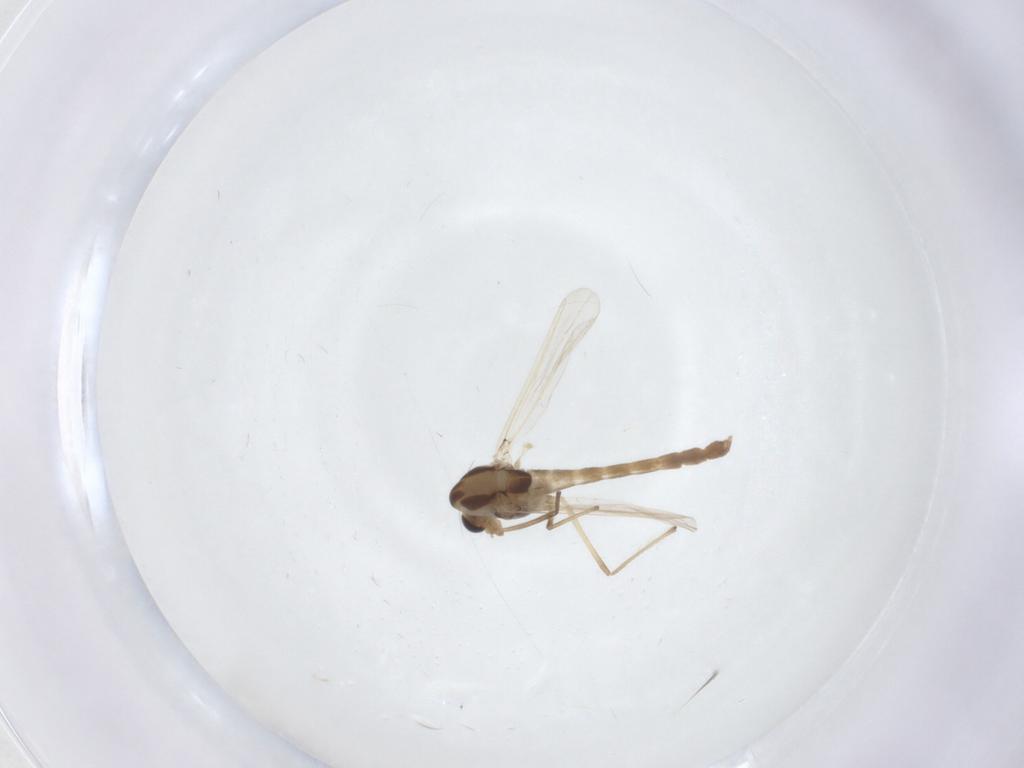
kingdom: Animalia
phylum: Arthropoda
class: Insecta
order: Diptera
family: Chironomidae
